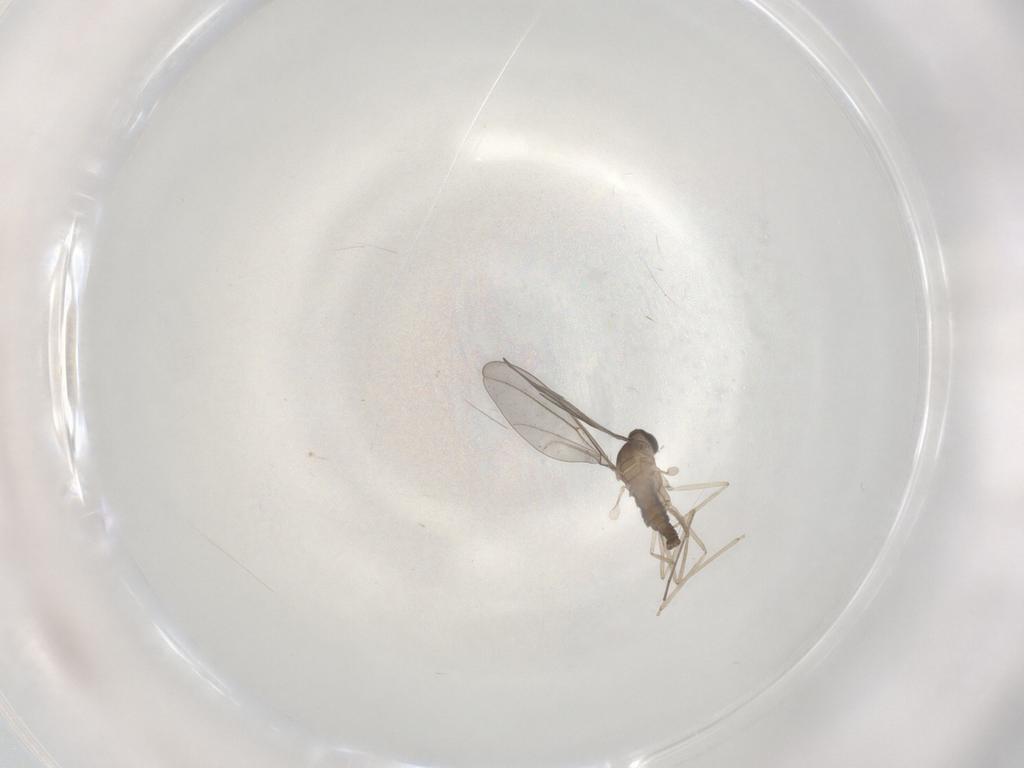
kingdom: Animalia
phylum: Arthropoda
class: Insecta
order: Diptera
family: Cecidomyiidae
